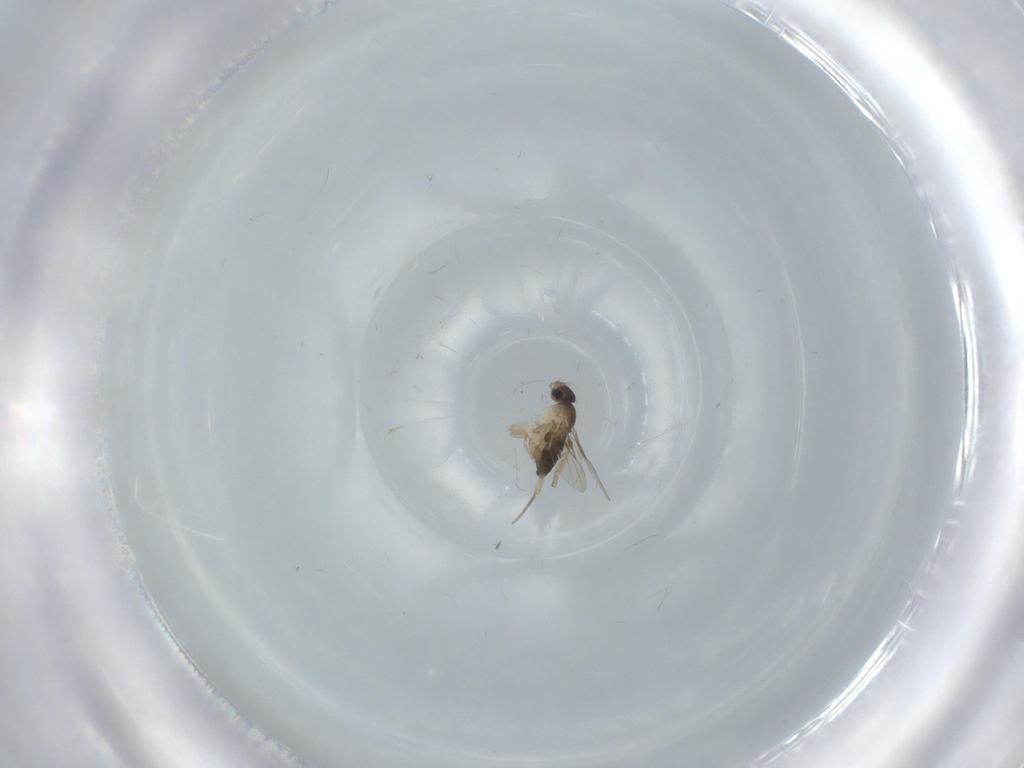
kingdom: Animalia
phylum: Arthropoda
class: Insecta
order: Diptera
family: Phoridae
